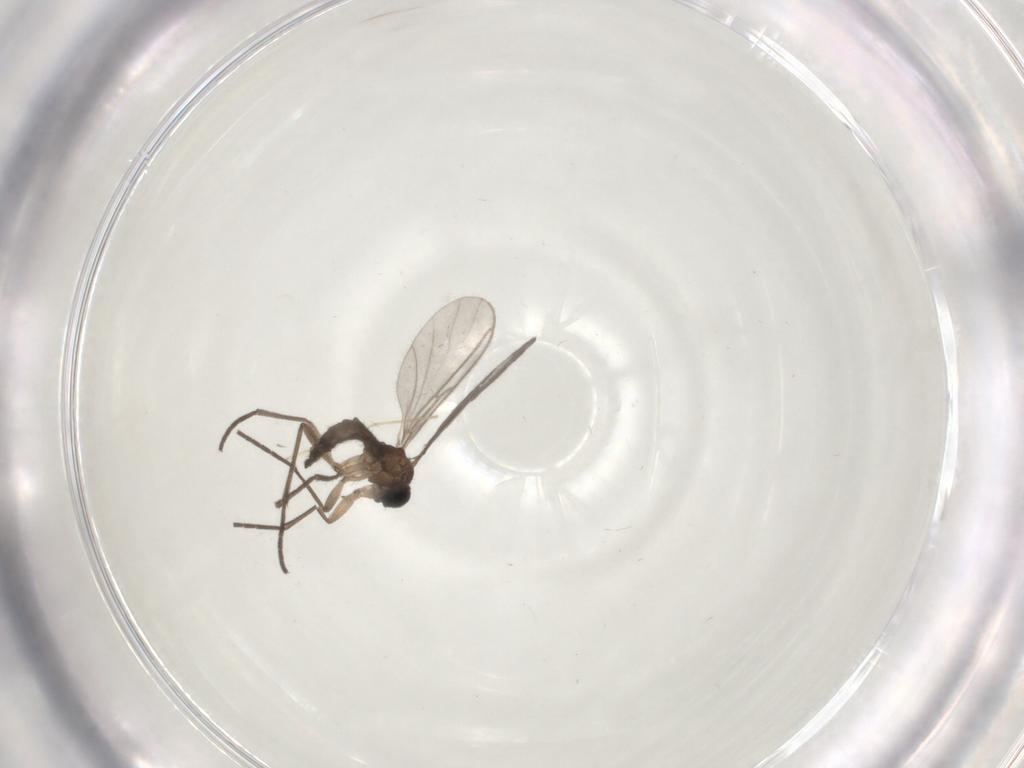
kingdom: Animalia
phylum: Arthropoda
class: Insecta
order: Diptera
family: Sciaridae
